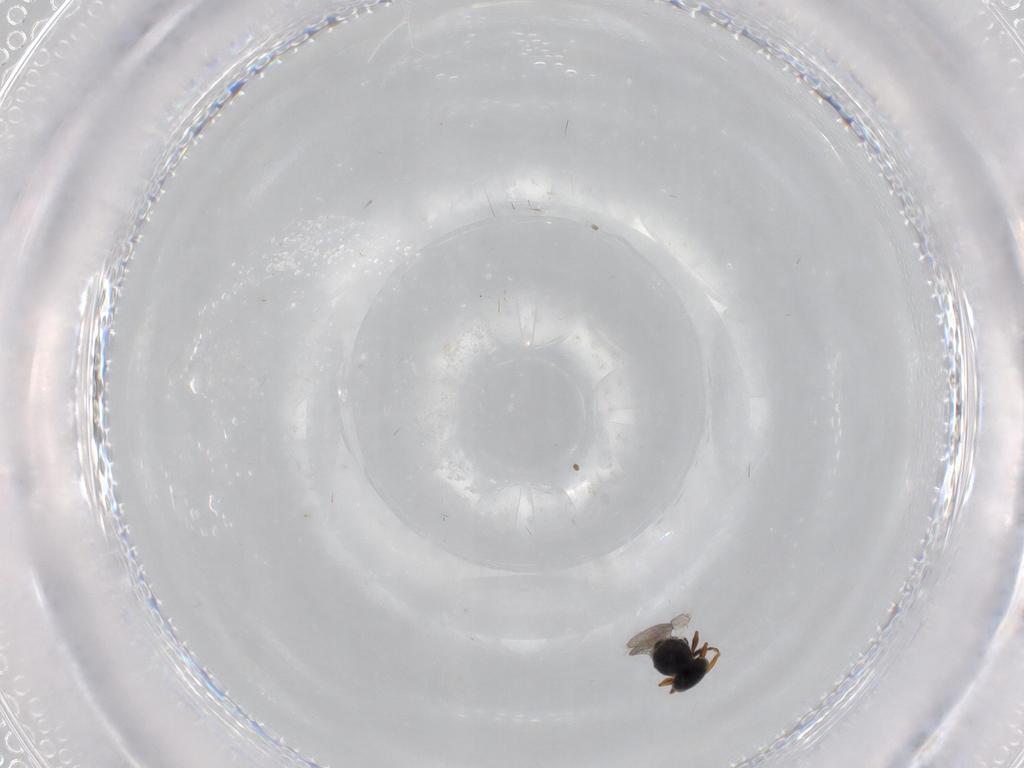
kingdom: Animalia
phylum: Arthropoda
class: Insecta
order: Hymenoptera
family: Platygastridae
